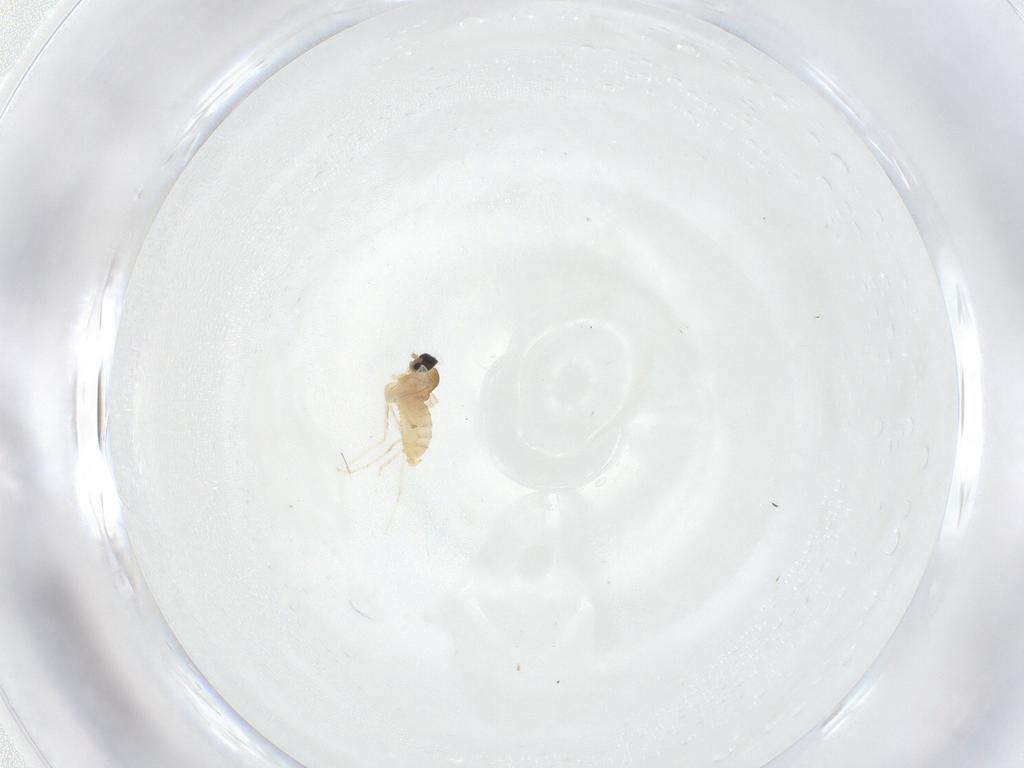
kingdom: Animalia
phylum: Arthropoda
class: Insecta
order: Diptera
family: Cecidomyiidae
